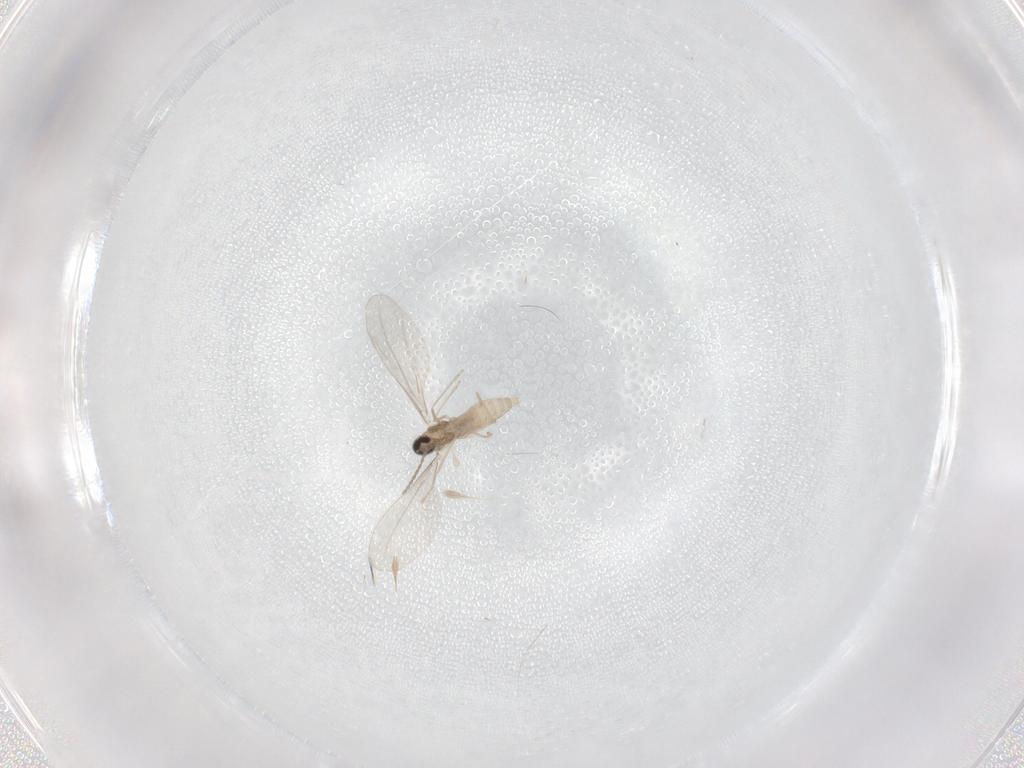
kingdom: Animalia
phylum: Arthropoda
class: Insecta
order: Diptera
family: Cecidomyiidae
